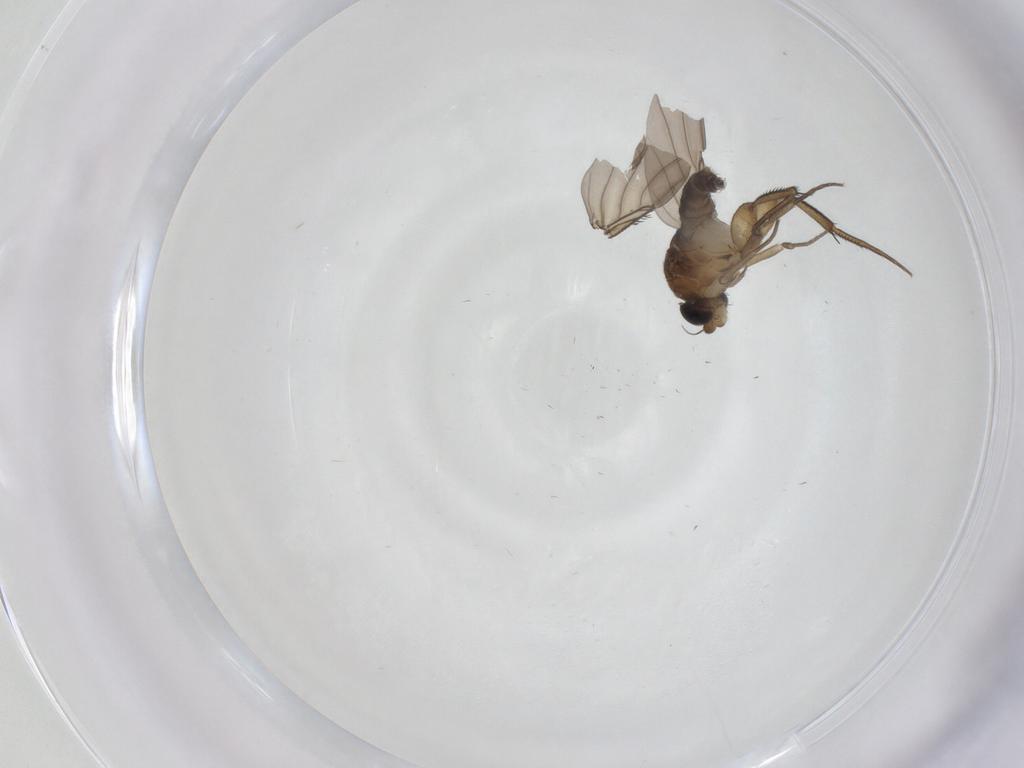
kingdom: Animalia
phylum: Arthropoda
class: Insecta
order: Diptera
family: Phoridae
